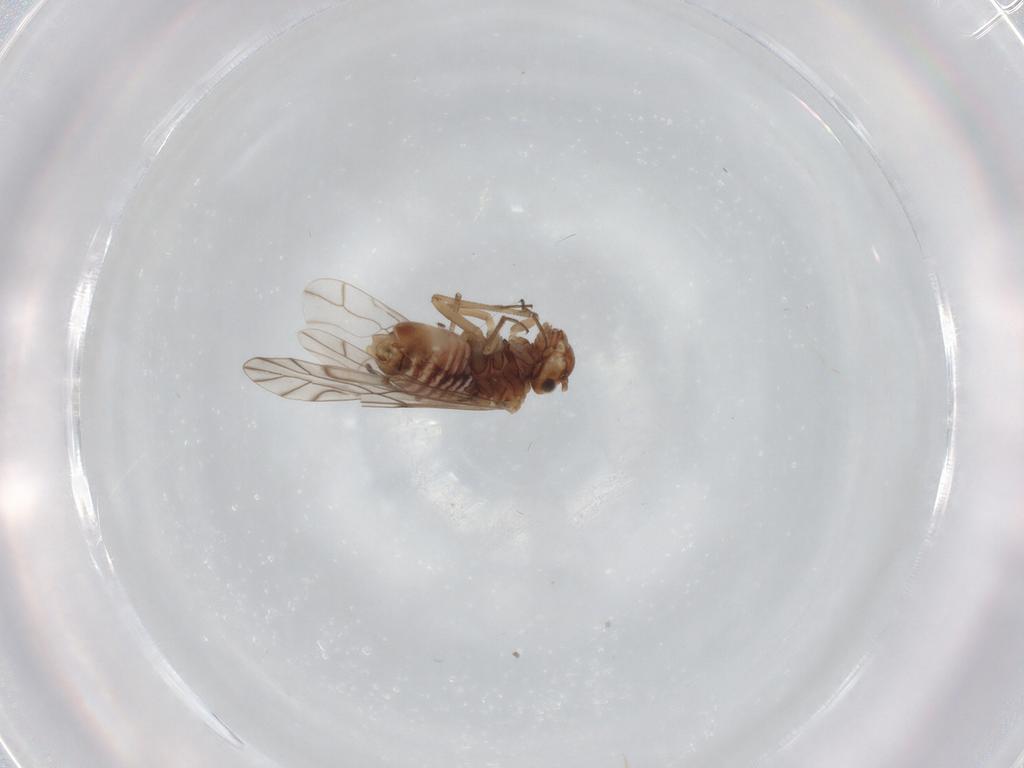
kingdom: Animalia
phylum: Arthropoda
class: Insecta
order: Psocodea
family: Lachesillidae
